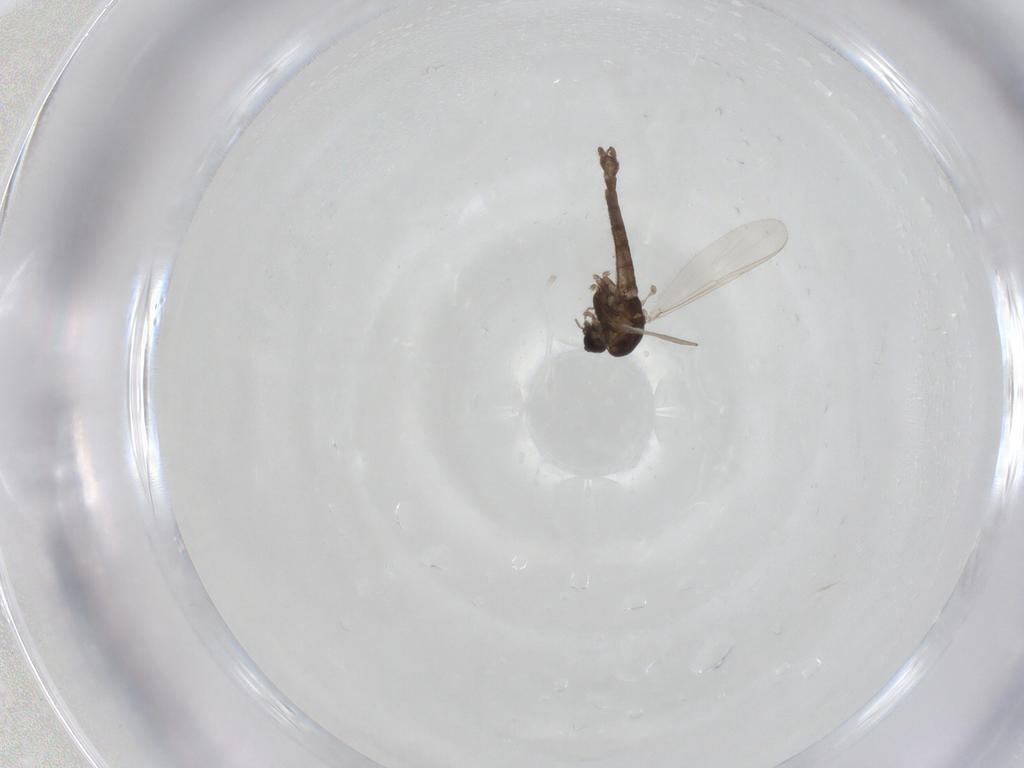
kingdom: Animalia
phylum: Arthropoda
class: Insecta
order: Diptera
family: Chironomidae
